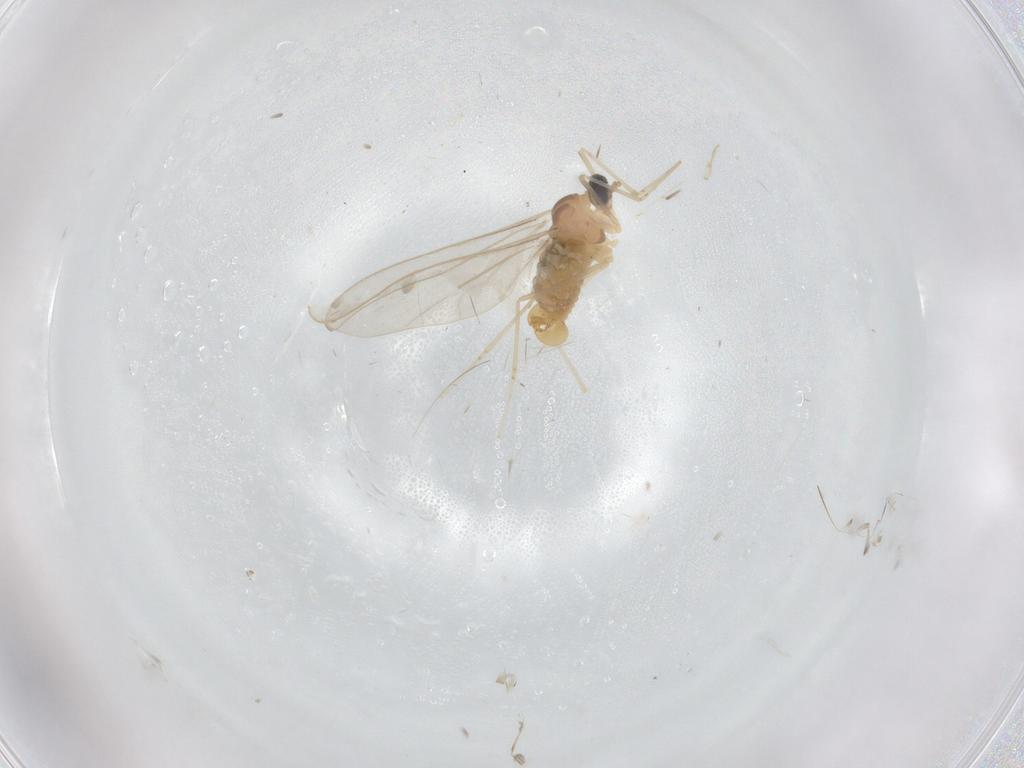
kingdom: Animalia
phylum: Arthropoda
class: Insecta
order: Diptera
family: Cecidomyiidae
